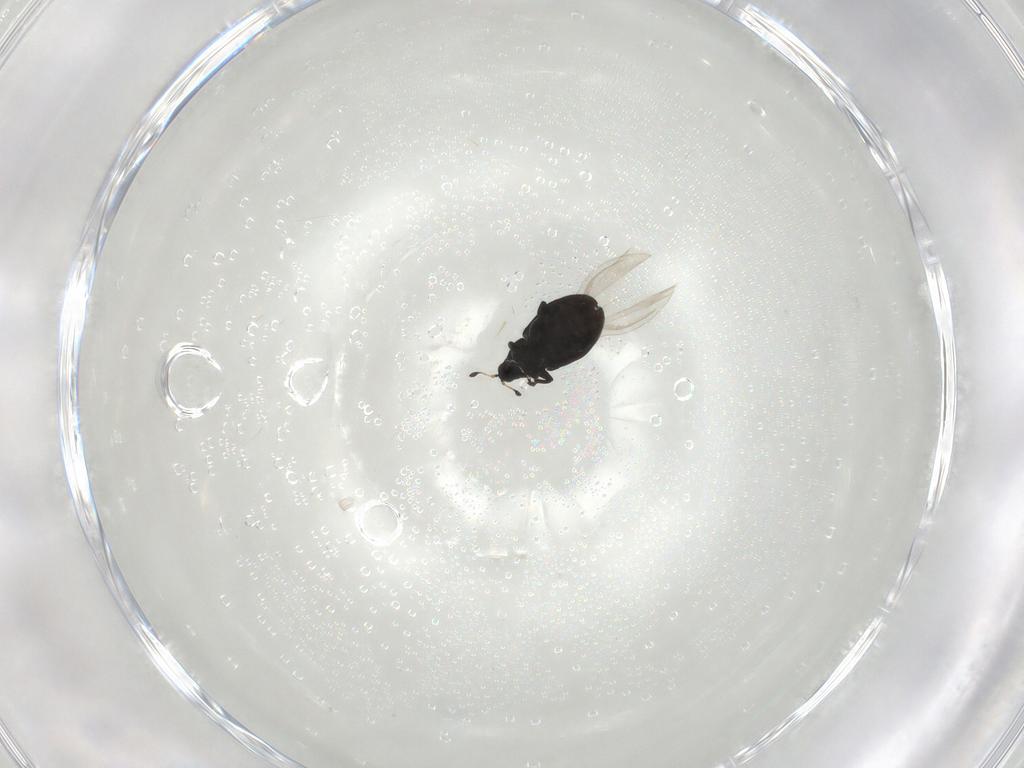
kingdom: Animalia
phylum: Arthropoda
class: Insecta
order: Coleoptera
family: Curculionidae
